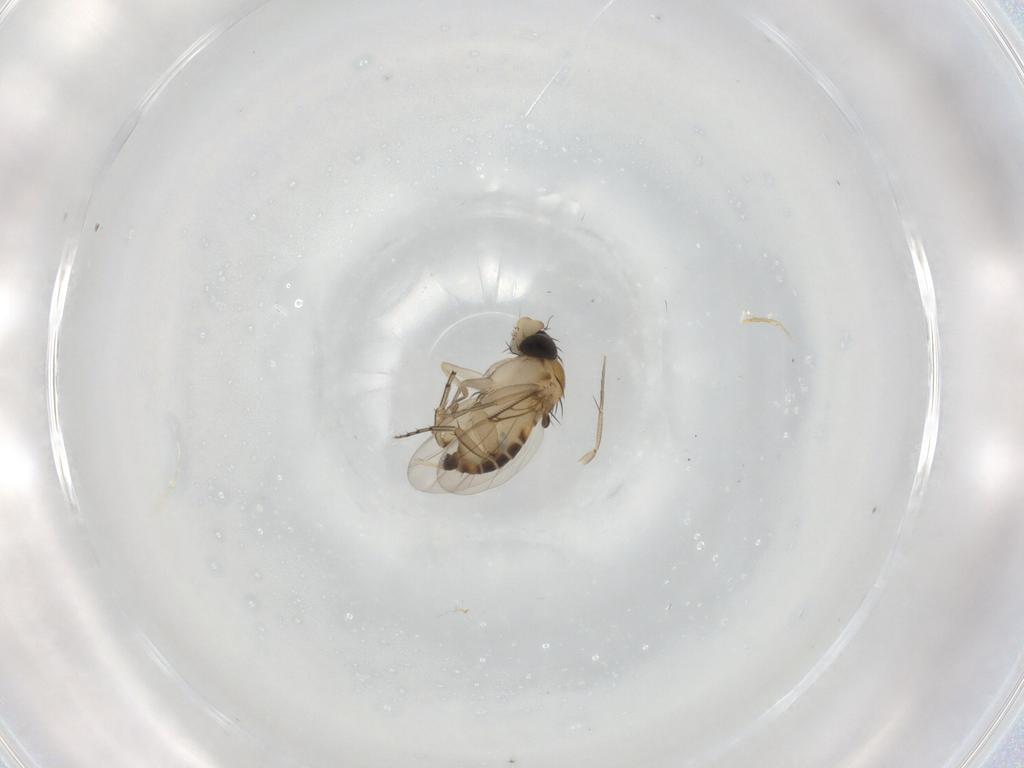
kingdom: Animalia
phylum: Arthropoda
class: Insecta
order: Diptera
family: Phoridae
